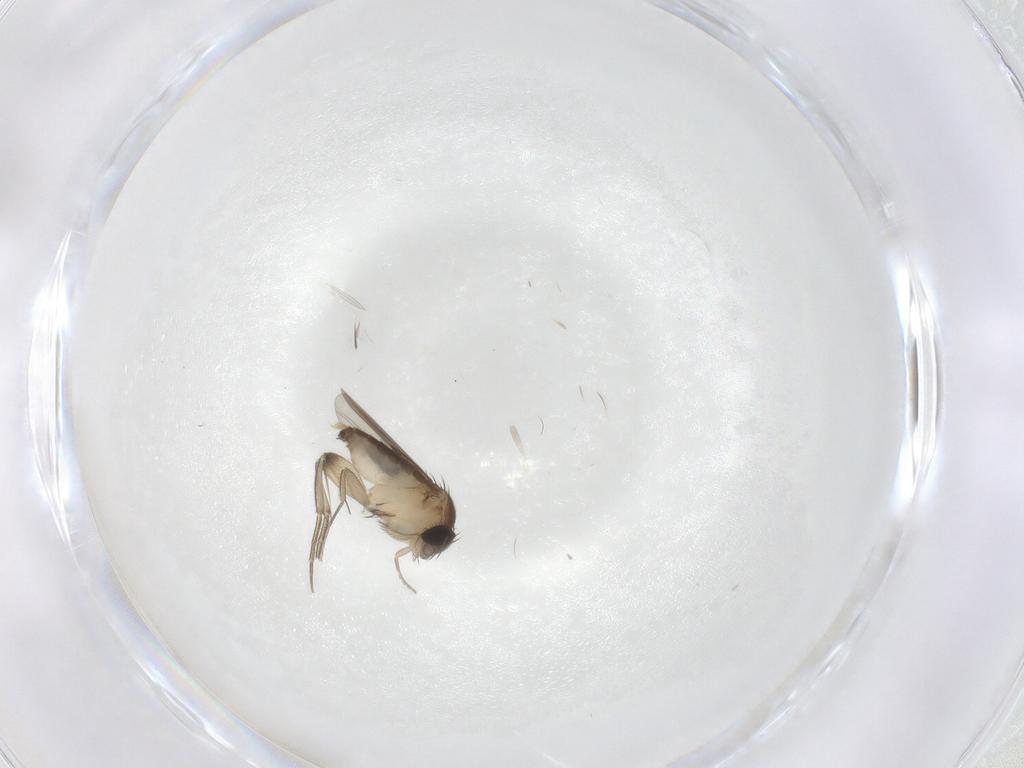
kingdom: Animalia
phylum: Arthropoda
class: Insecta
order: Diptera
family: Phoridae
